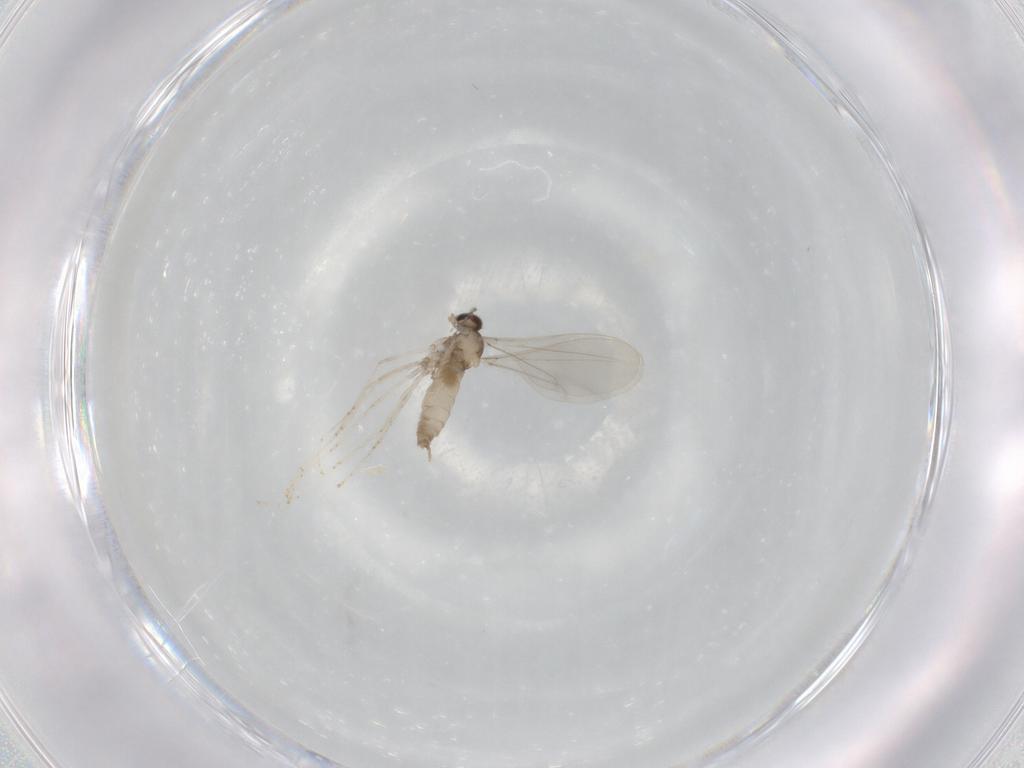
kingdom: Animalia
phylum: Arthropoda
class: Insecta
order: Diptera
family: Cecidomyiidae
